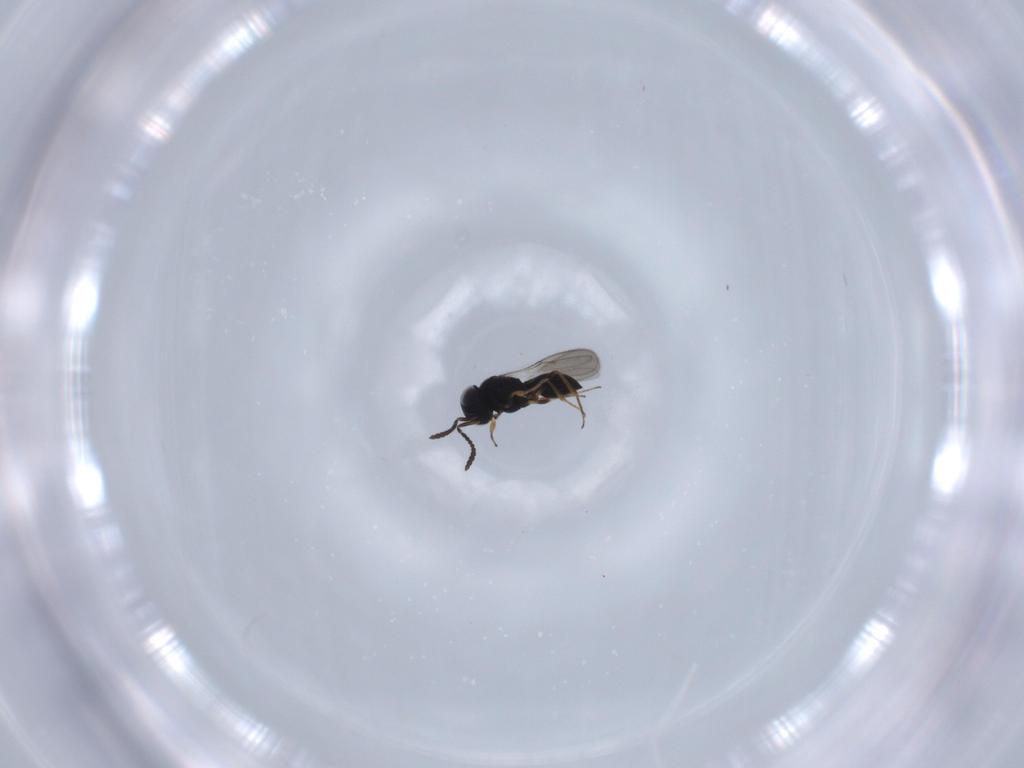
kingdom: Animalia
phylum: Arthropoda
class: Insecta
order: Hymenoptera
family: Scelionidae
